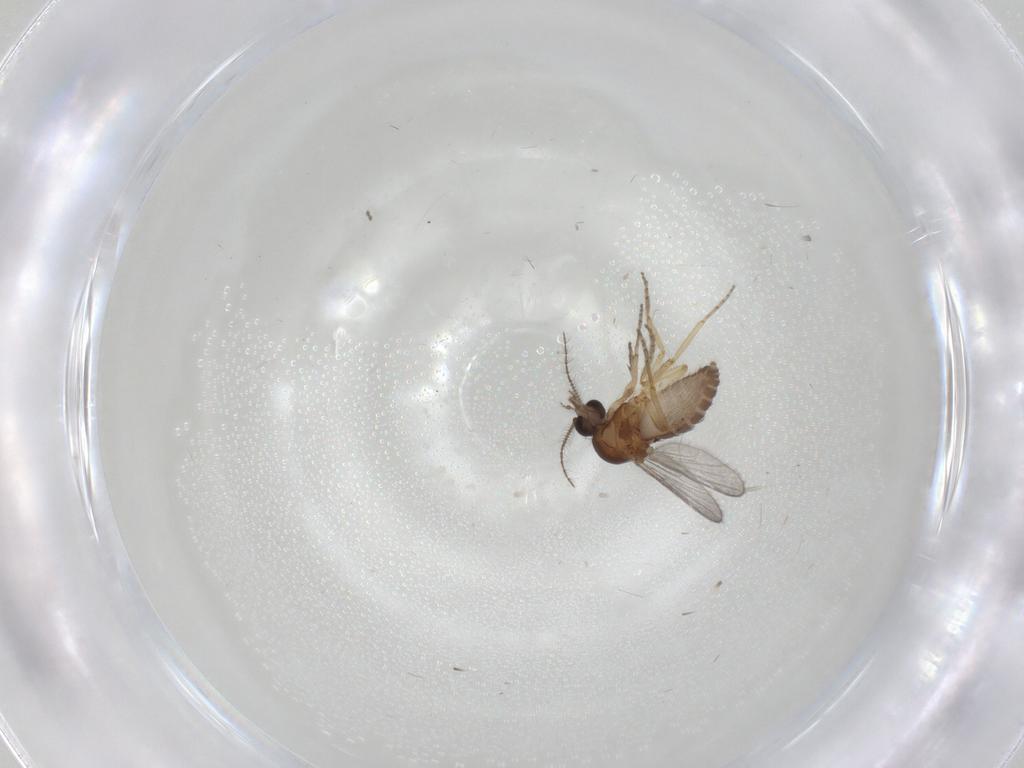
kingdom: Animalia
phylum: Arthropoda
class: Insecta
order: Diptera
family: Ceratopogonidae
